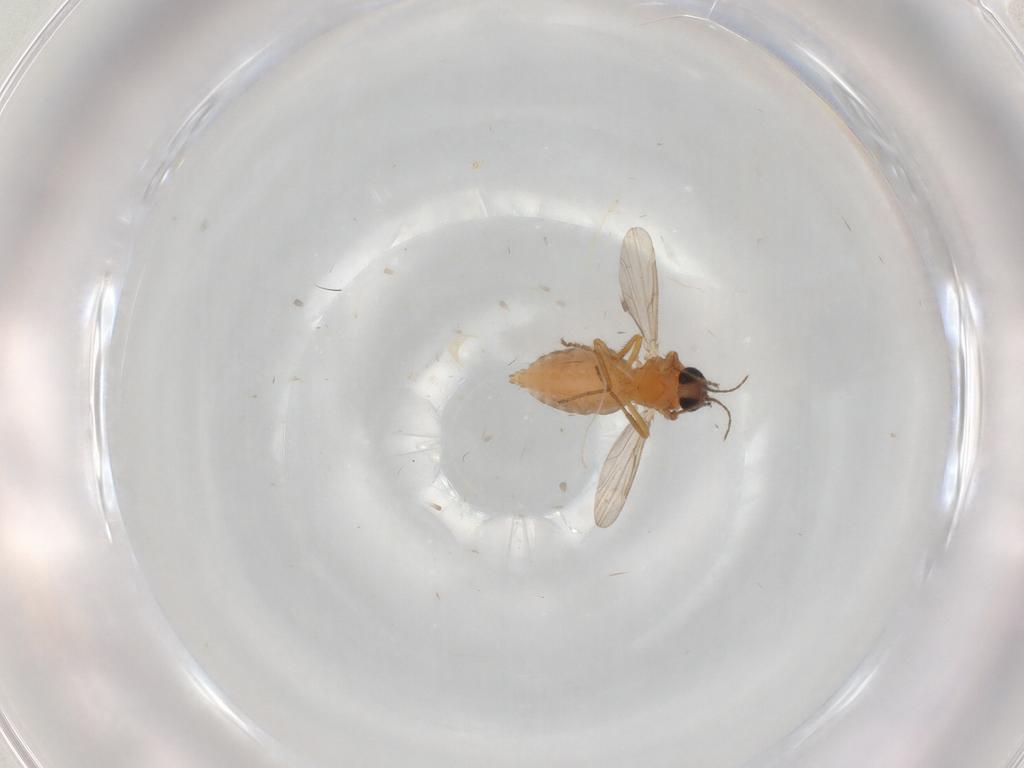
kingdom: Animalia
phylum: Arthropoda
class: Insecta
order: Diptera
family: Ceratopogonidae
